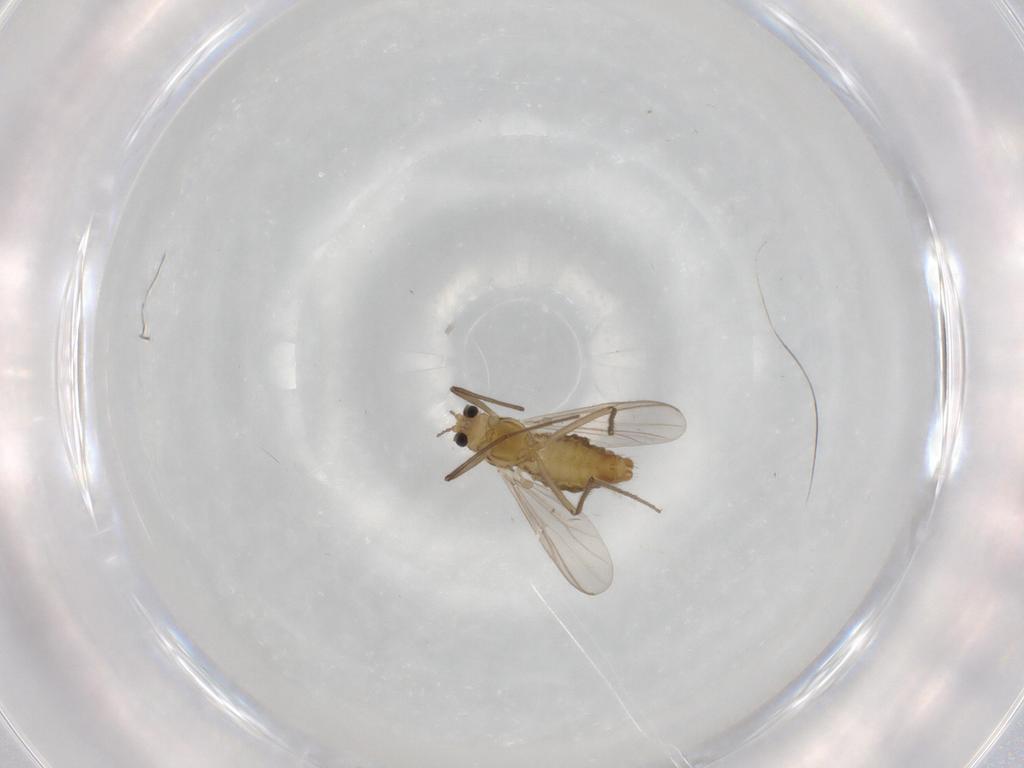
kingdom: Animalia
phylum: Arthropoda
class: Insecta
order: Diptera
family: Chironomidae
